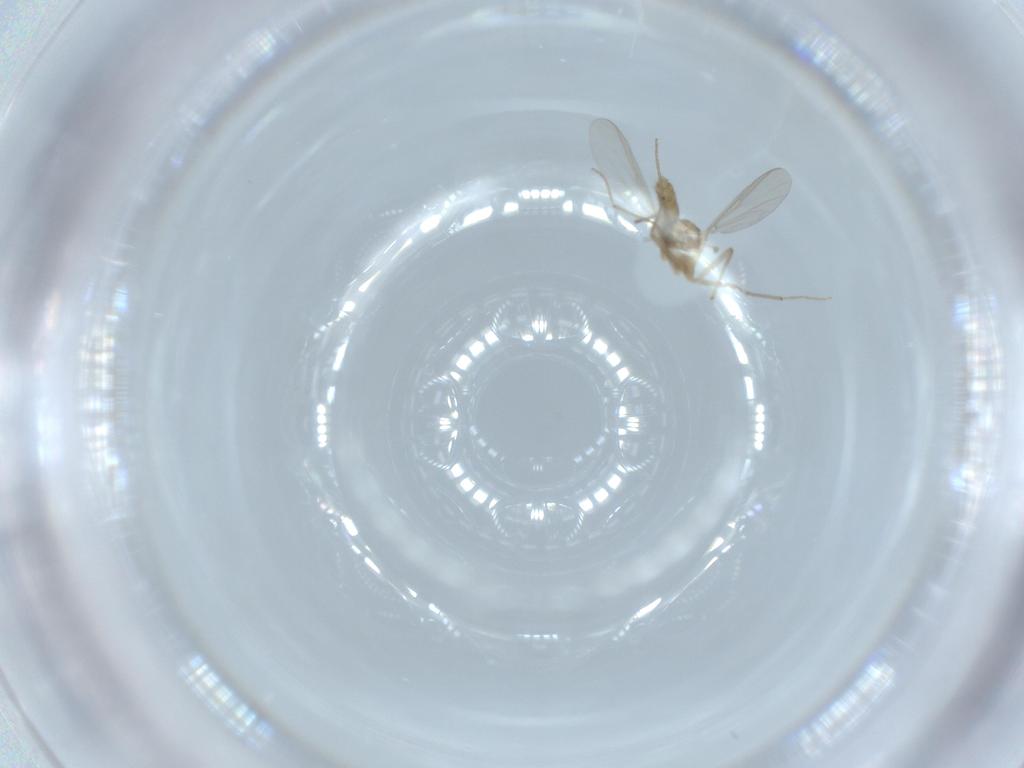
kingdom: Animalia
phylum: Arthropoda
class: Insecta
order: Diptera
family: Chironomidae
